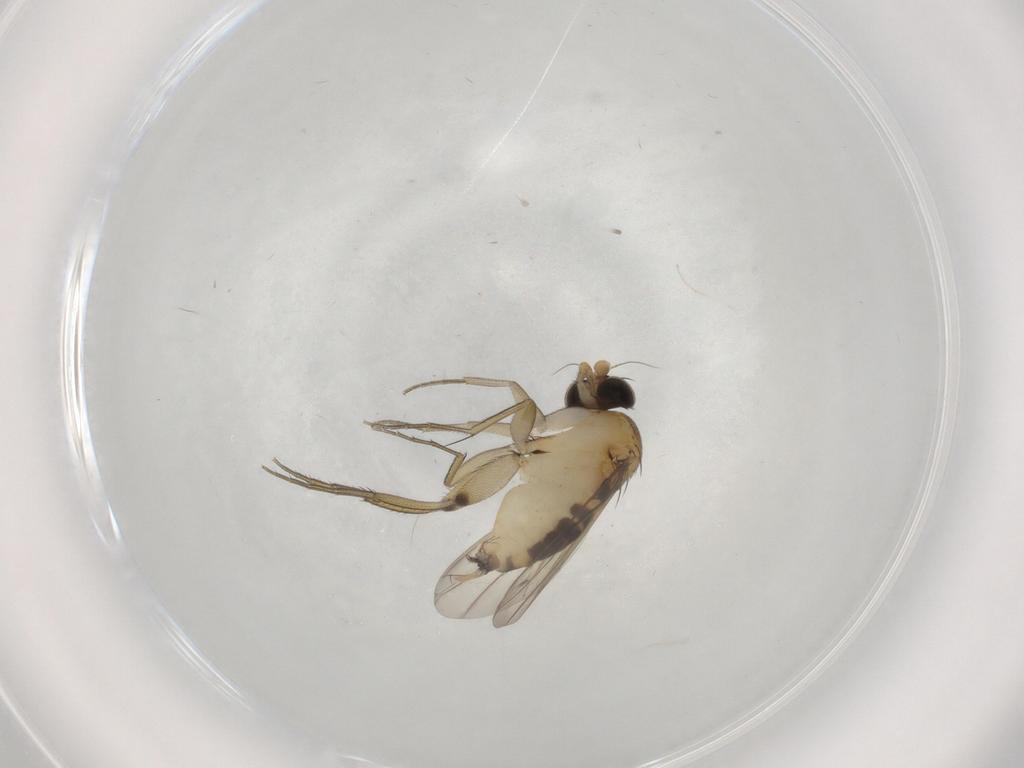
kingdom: Animalia
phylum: Arthropoda
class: Insecta
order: Diptera
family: Phoridae
